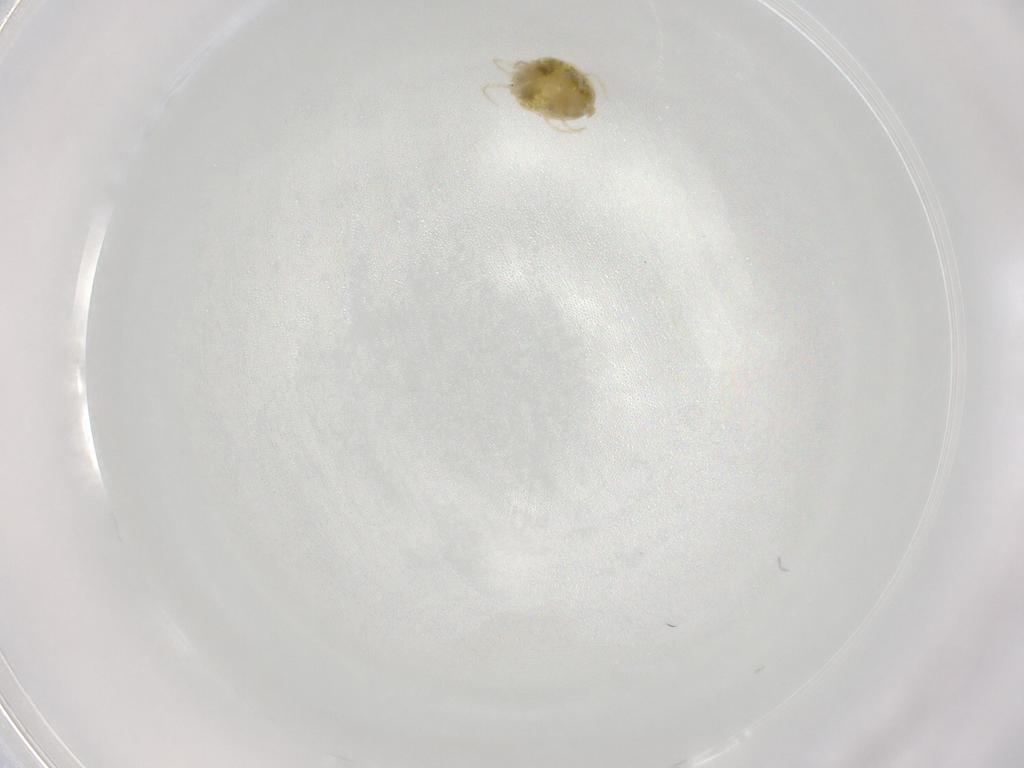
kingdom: Animalia
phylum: Arthropoda
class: Arachnida
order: Trombidiformes
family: Tetranychidae
